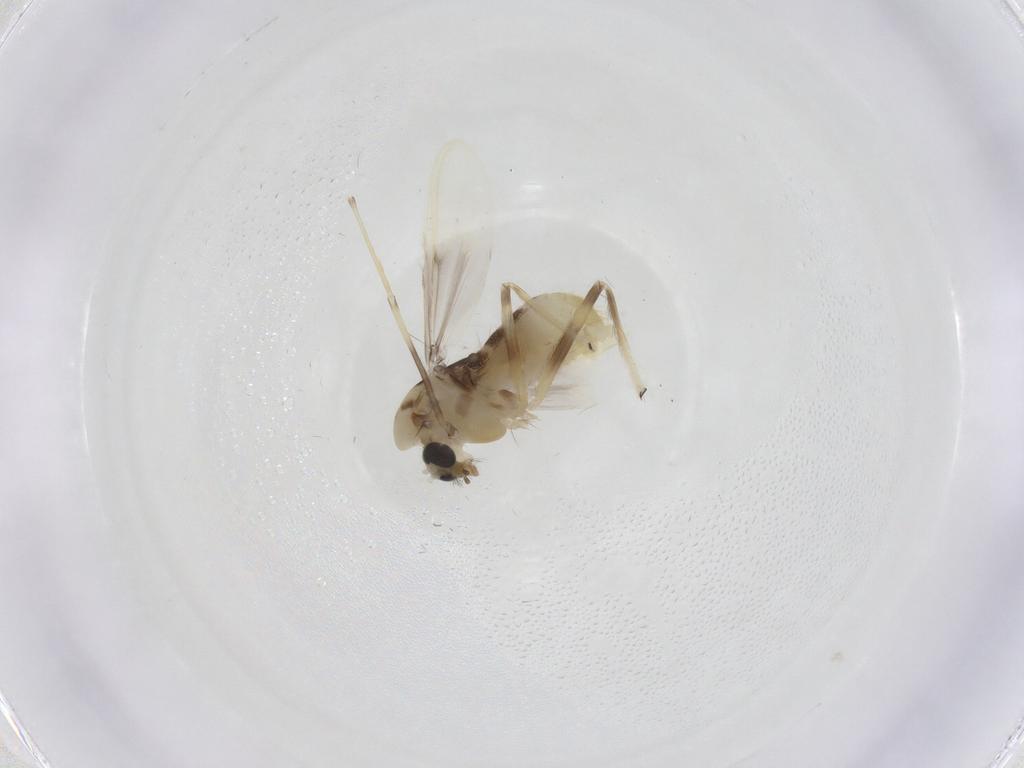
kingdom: Animalia
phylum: Arthropoda
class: Insecta
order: Diptera
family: Chironomidae
